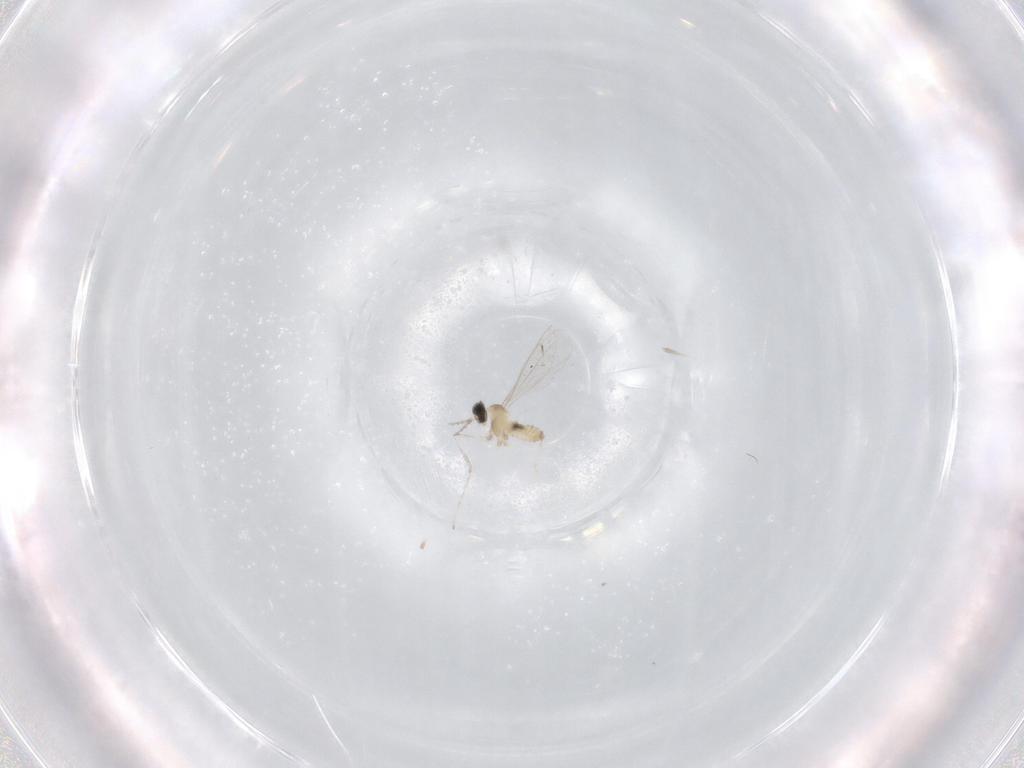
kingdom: Animalia
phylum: Arthropoda
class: Insecta
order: Diptera
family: Cecidomyiidae
